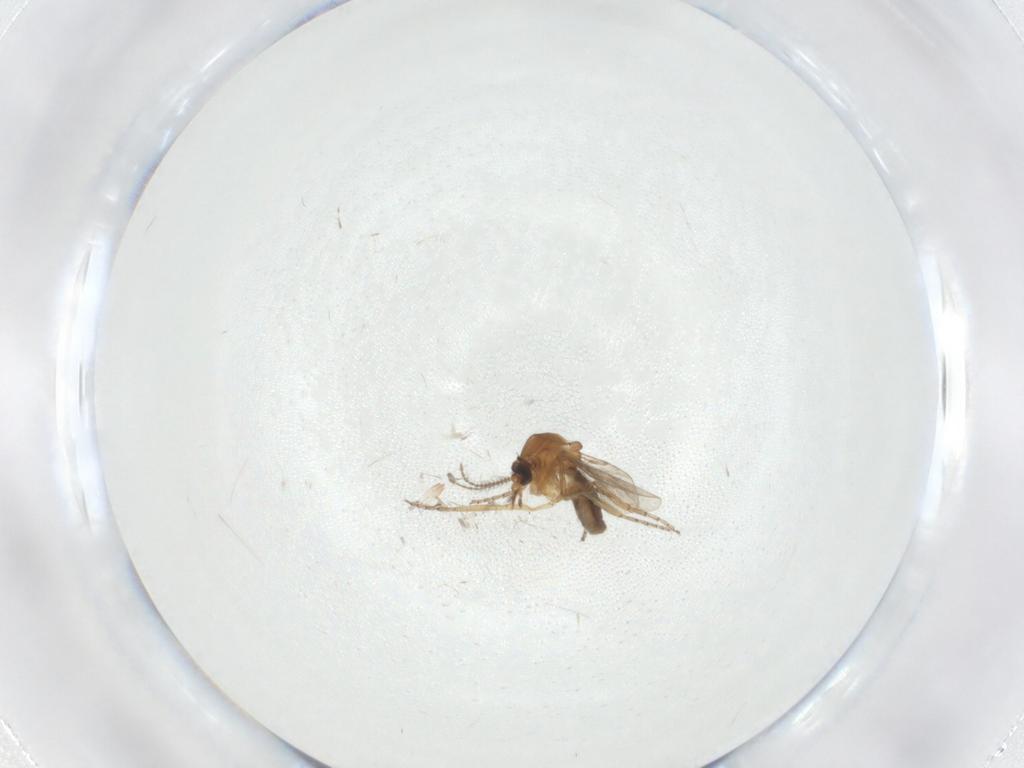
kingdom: Animalia
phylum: Arthropoda
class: Insecta
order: Diptera
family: Ceratopogonidae
